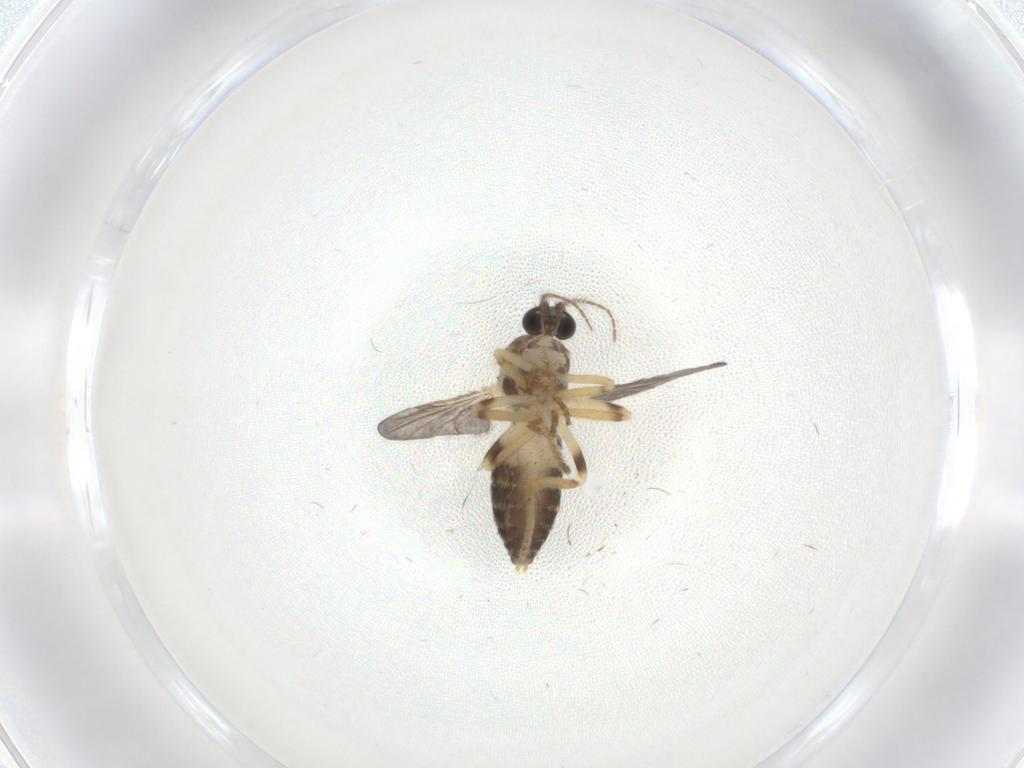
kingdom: Animalia
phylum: Arthropoda
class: Insecta
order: Diptera
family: Ceratopogonidae
